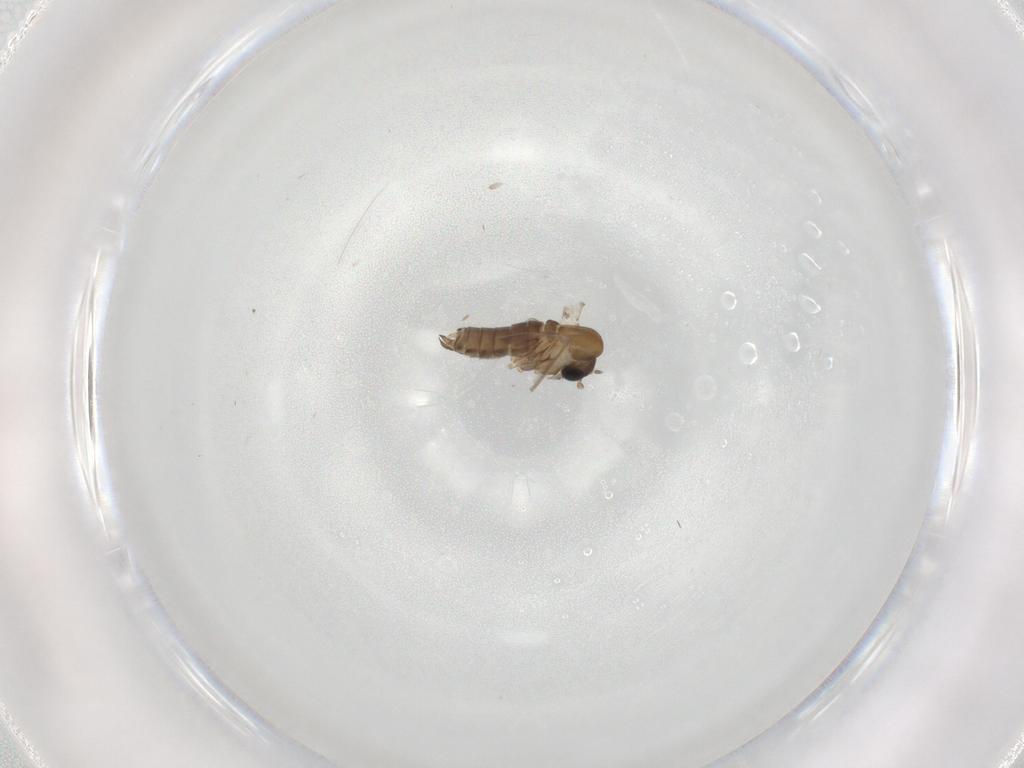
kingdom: Animalia
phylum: Arthropoda
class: Insecta
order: Diptera
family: Psychodidae
